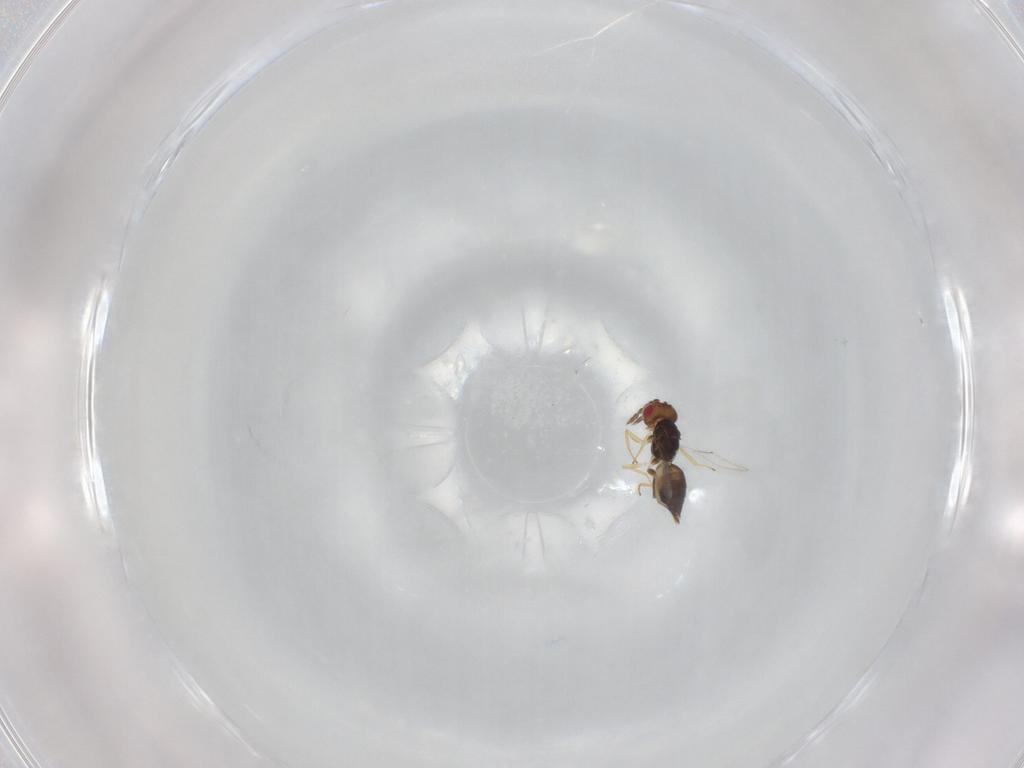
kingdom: Animalia
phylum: Arthropoda
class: Insecta
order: Hymenoptera
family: Eulophidae
